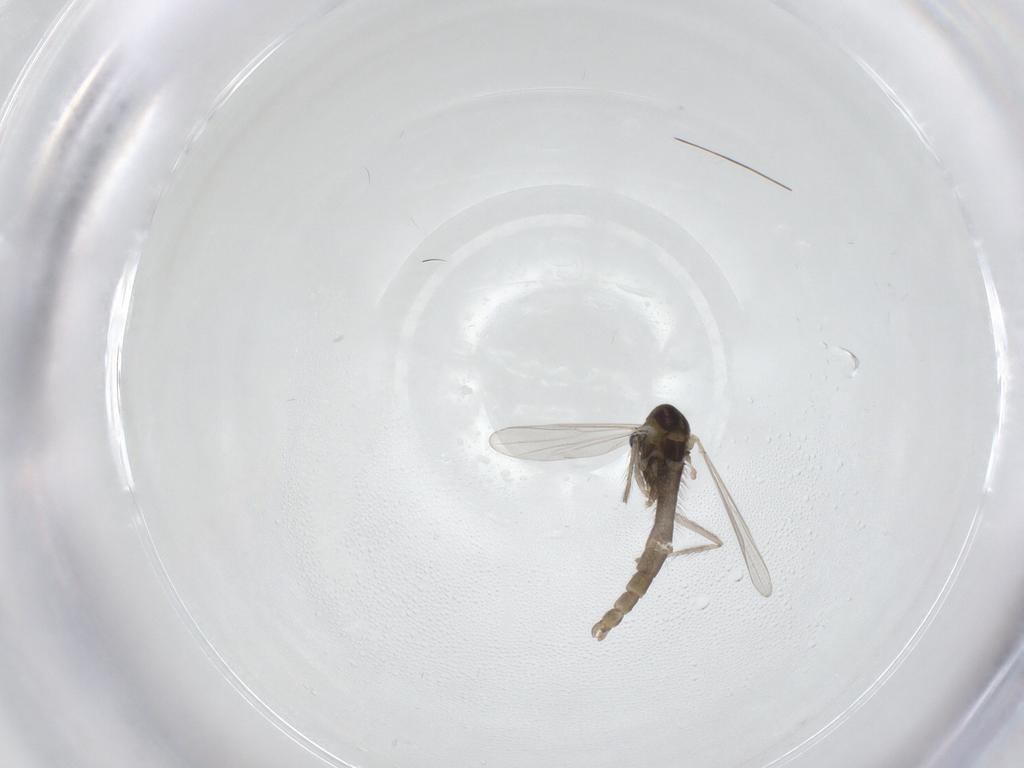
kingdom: Animalia
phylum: Arthropoda
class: Insecta
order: Diptera
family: Chironomidae
